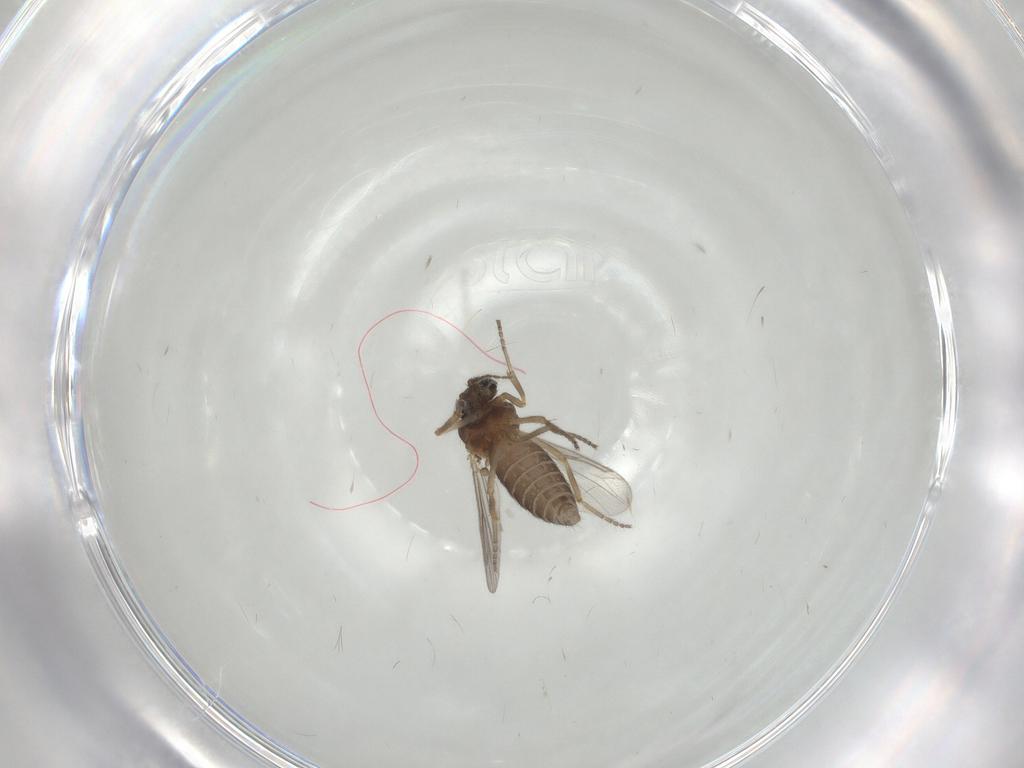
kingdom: Animalia
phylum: Arthropoda
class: Insecta
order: Diptera
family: Ceratopogonidae
